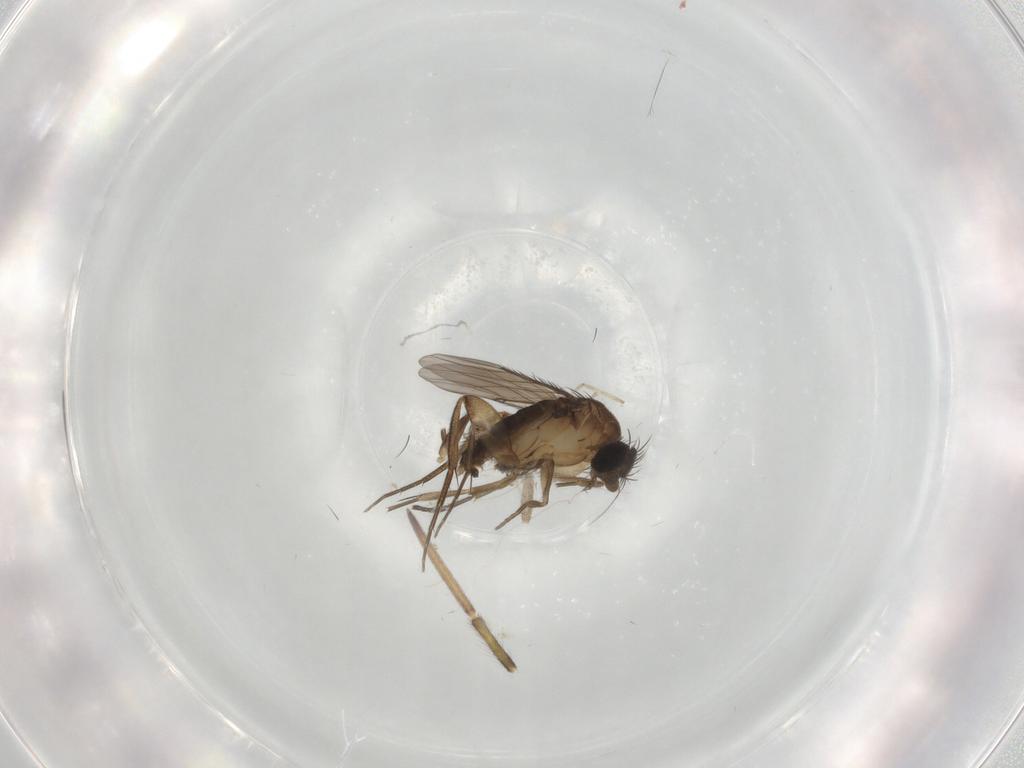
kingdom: Animalia
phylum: Arthropoda
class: Insecta
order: Diptera
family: Phoridae
